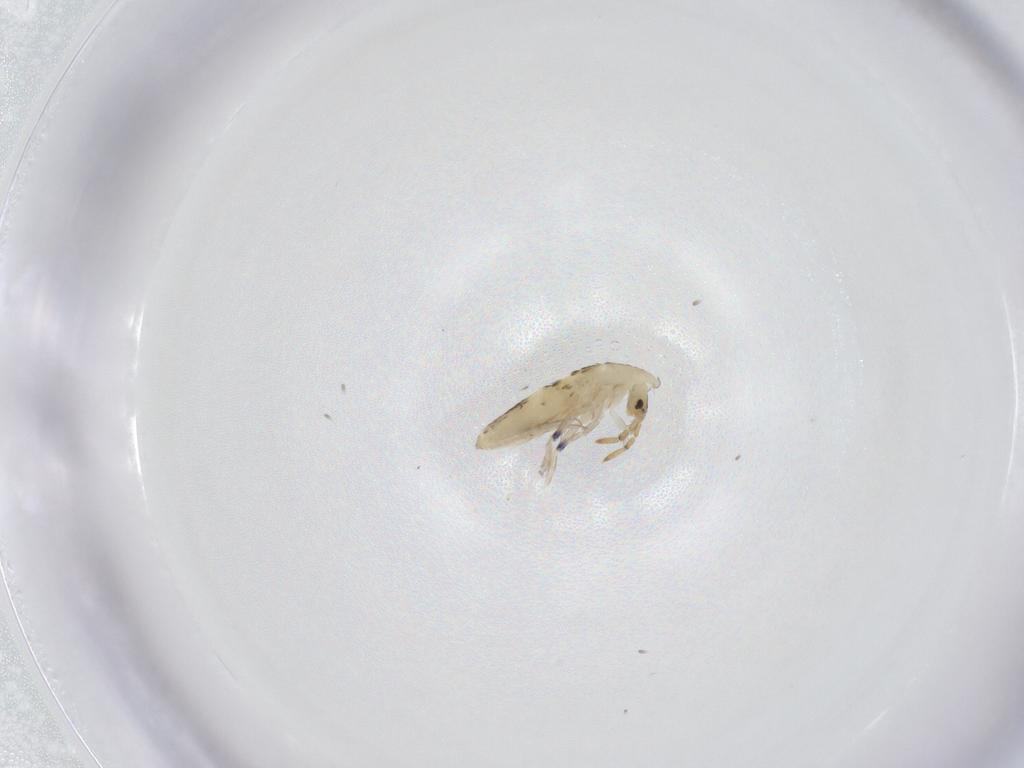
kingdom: Animalia
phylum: Arthropoda
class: Collembola
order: Entomobryomorpha
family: Entomobryidae
